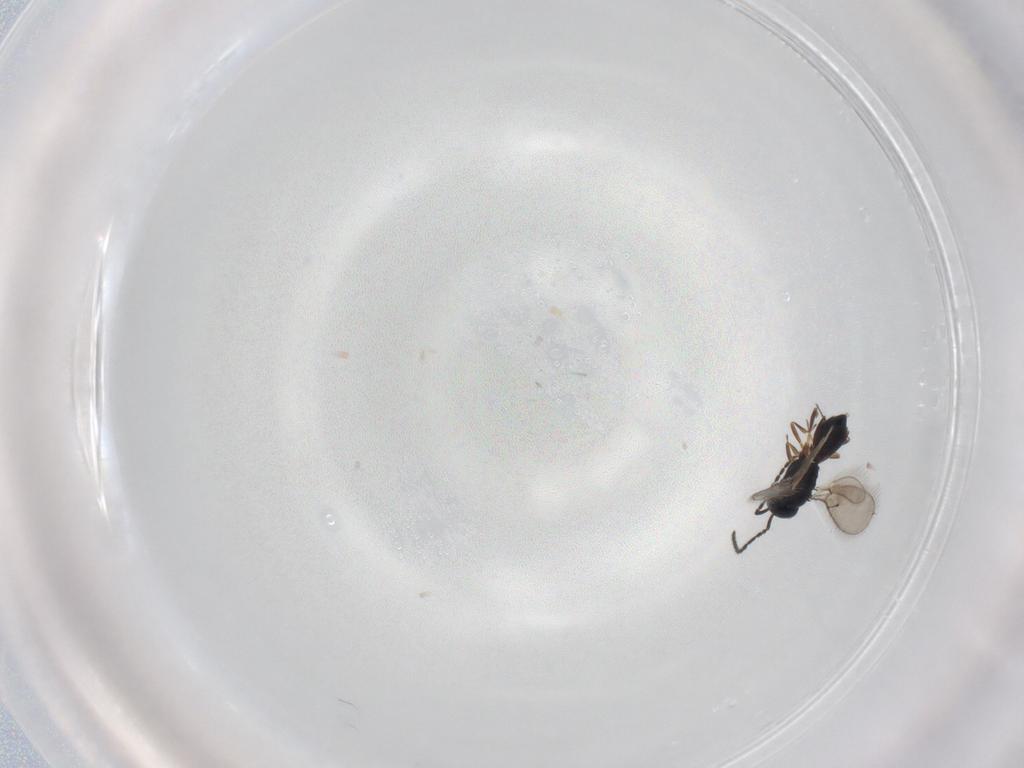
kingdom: Animalia
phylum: Arthropoda
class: Insecta
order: Hymenoptera
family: Scelionidae
